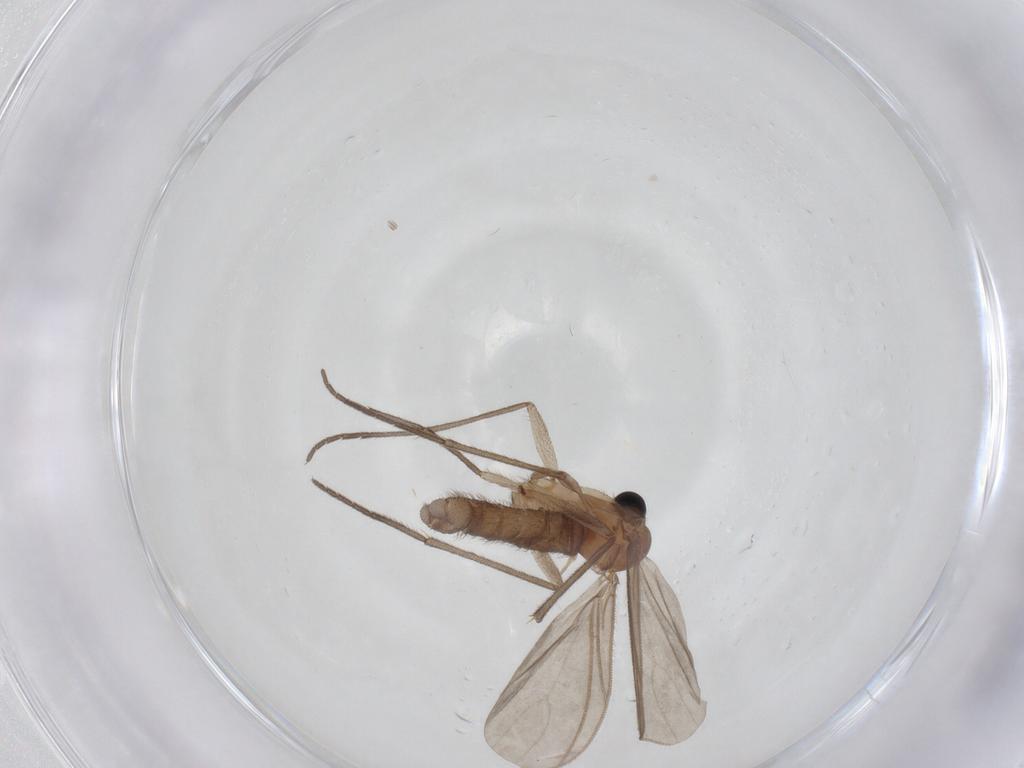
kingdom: Animalia
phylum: Arthropoda
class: Insecta
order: Diptera
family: Sciaridae
